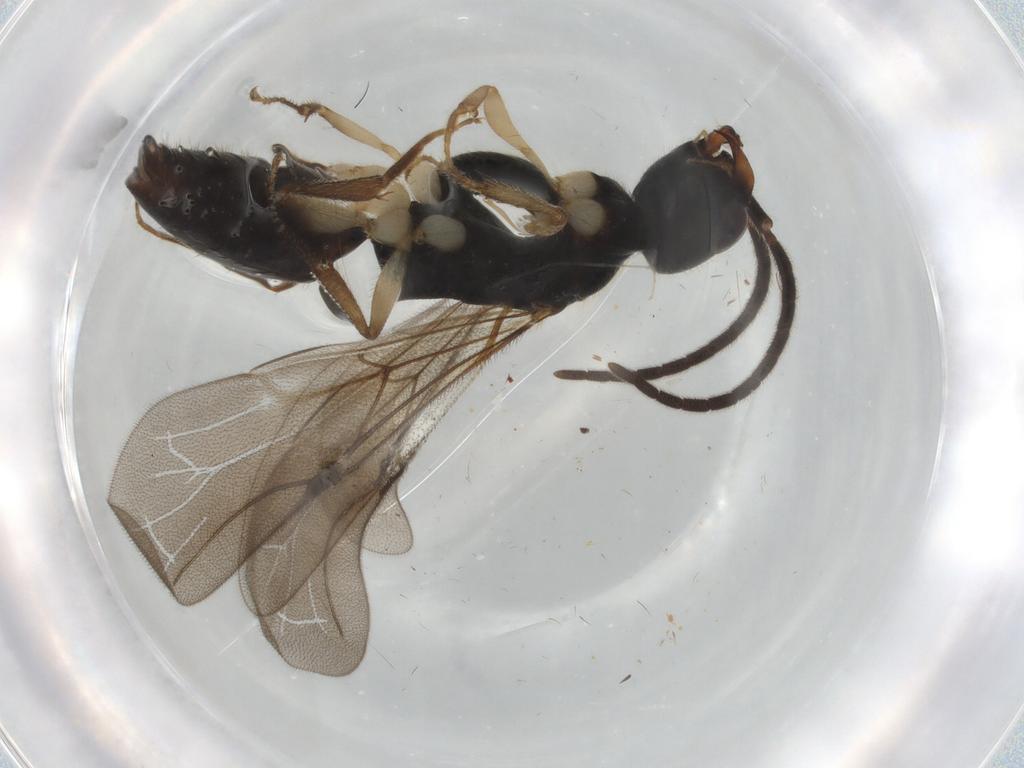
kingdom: Animalia
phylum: Arthropoda
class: Insecta
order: Hymenoptera
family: Bethylidae
